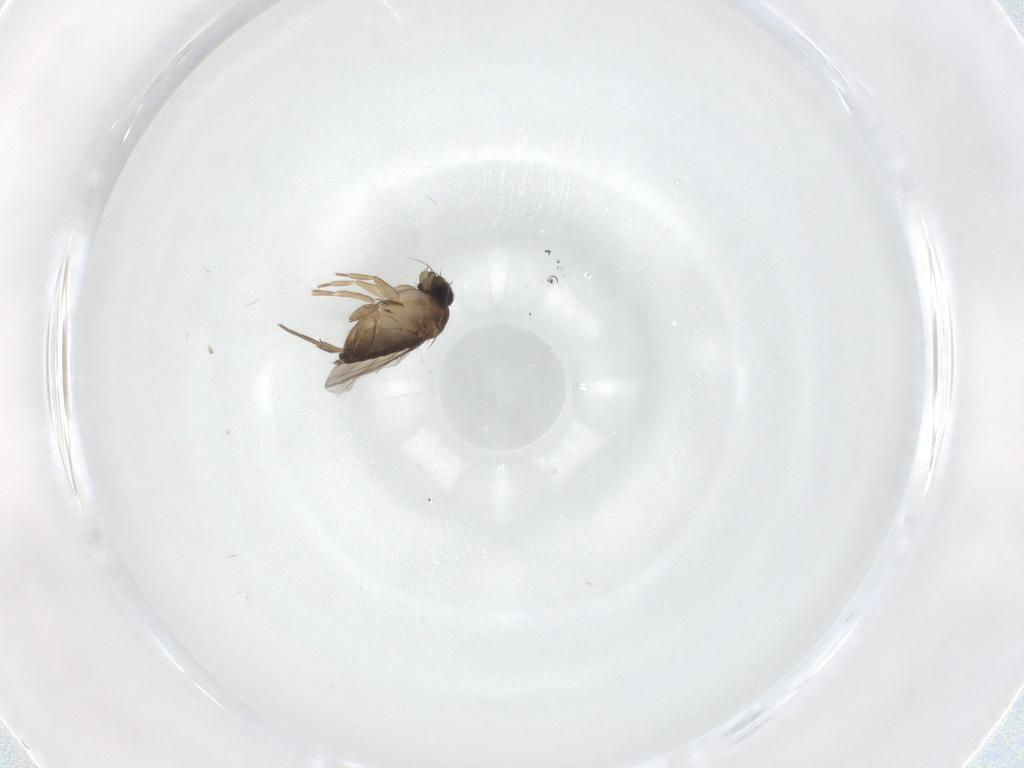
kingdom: Animalia
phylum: Arthropoda
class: Insecta
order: Diptera
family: Phoridae
